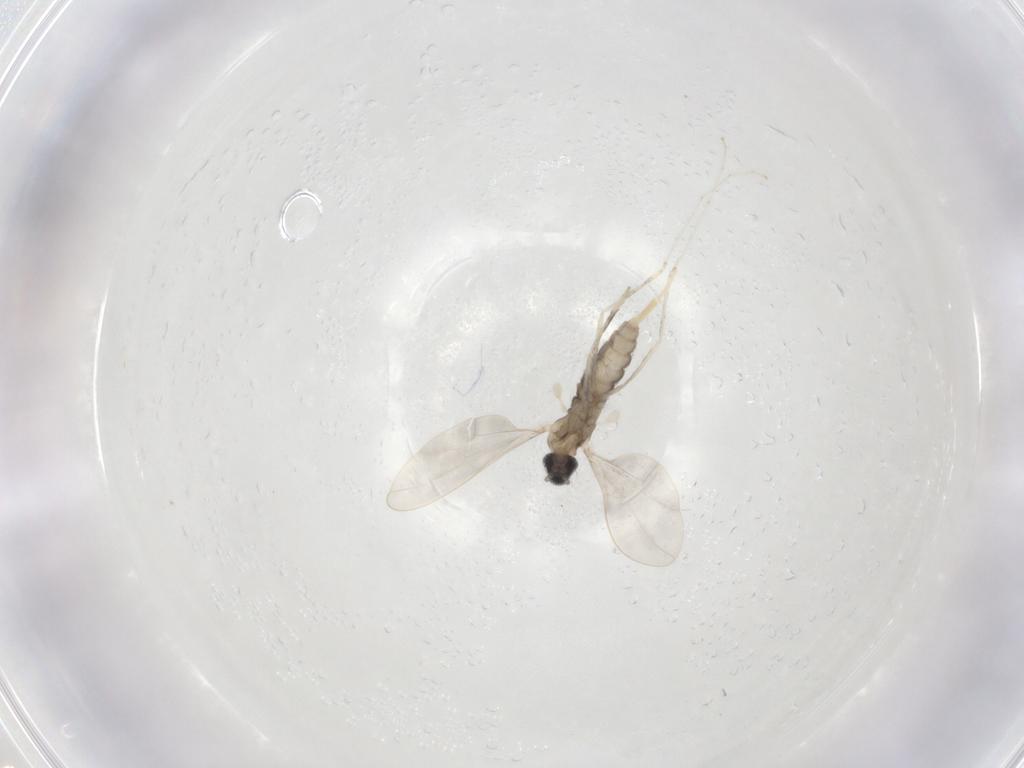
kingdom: Animalia
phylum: Arthropoda
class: Insecta
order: Diptera
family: Cecidomyiidae
